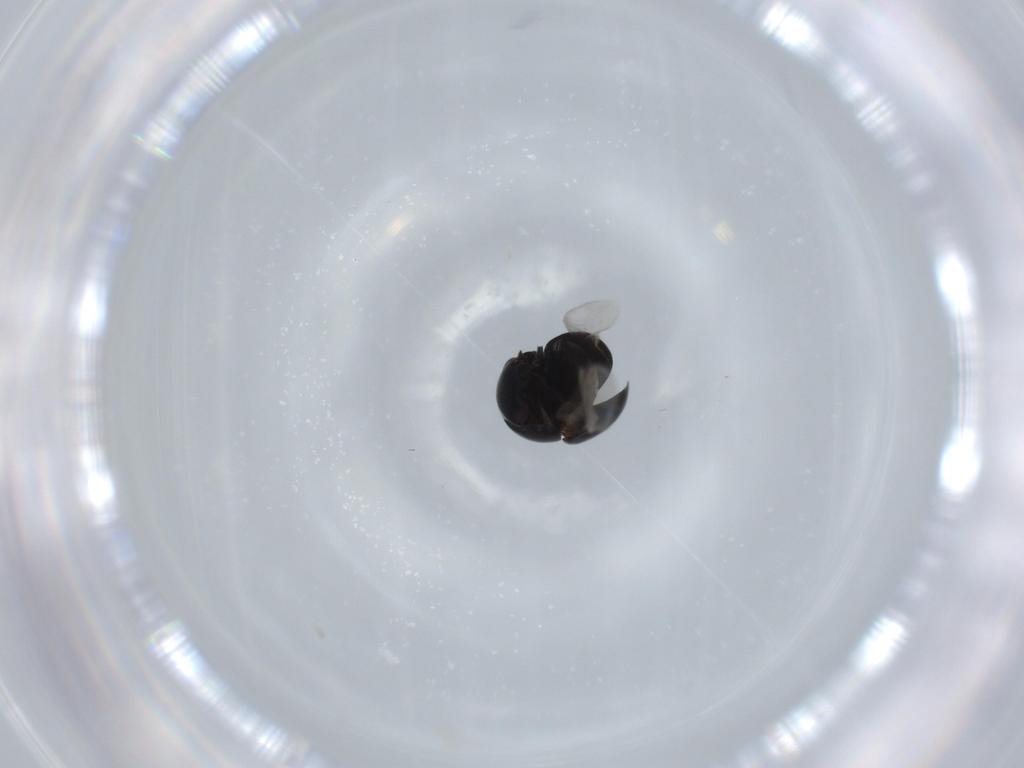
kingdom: Animalia
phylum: Arthropoda
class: Insecta
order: Coleoptera
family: Cybocephalidae
